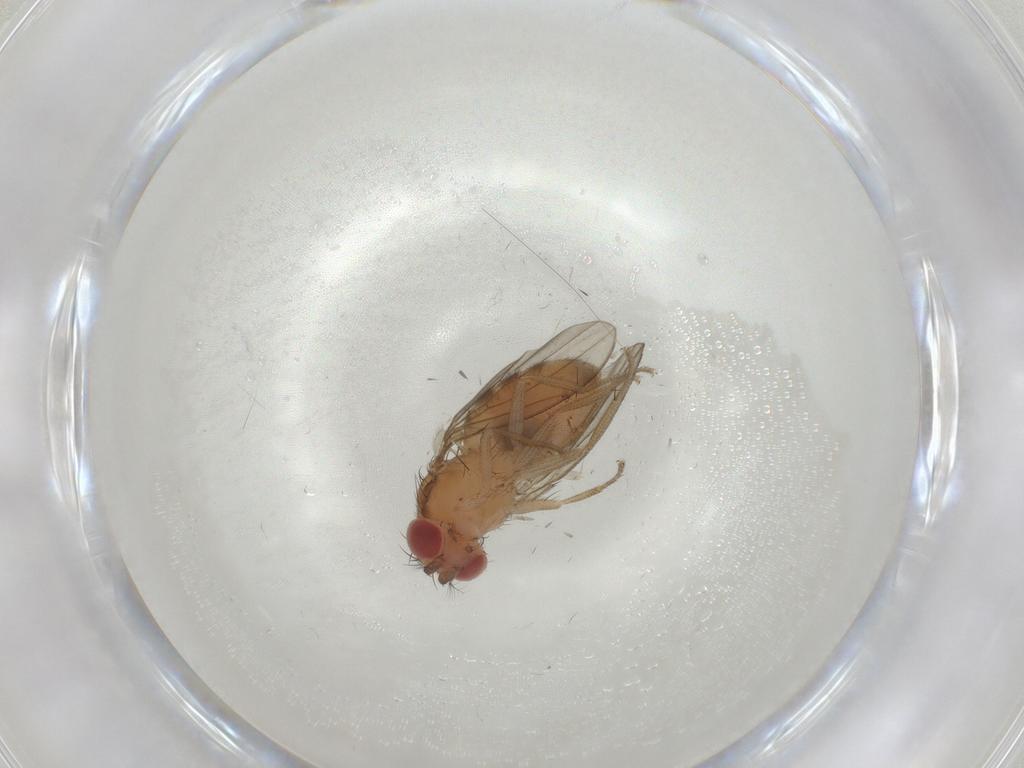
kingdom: Animalia
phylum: Arthropoda
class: Insecta
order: Diptera
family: Drosophilidae
